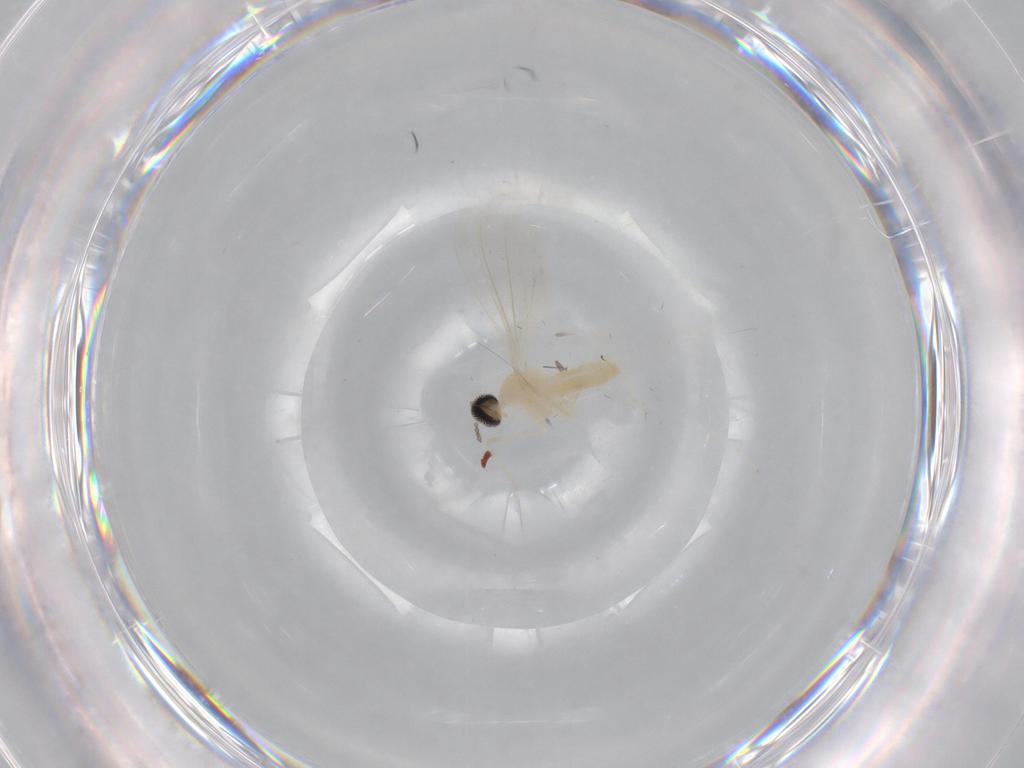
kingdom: Animalia
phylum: Arthropoda
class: Insecta
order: Diptera
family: Cecidomyiidae
